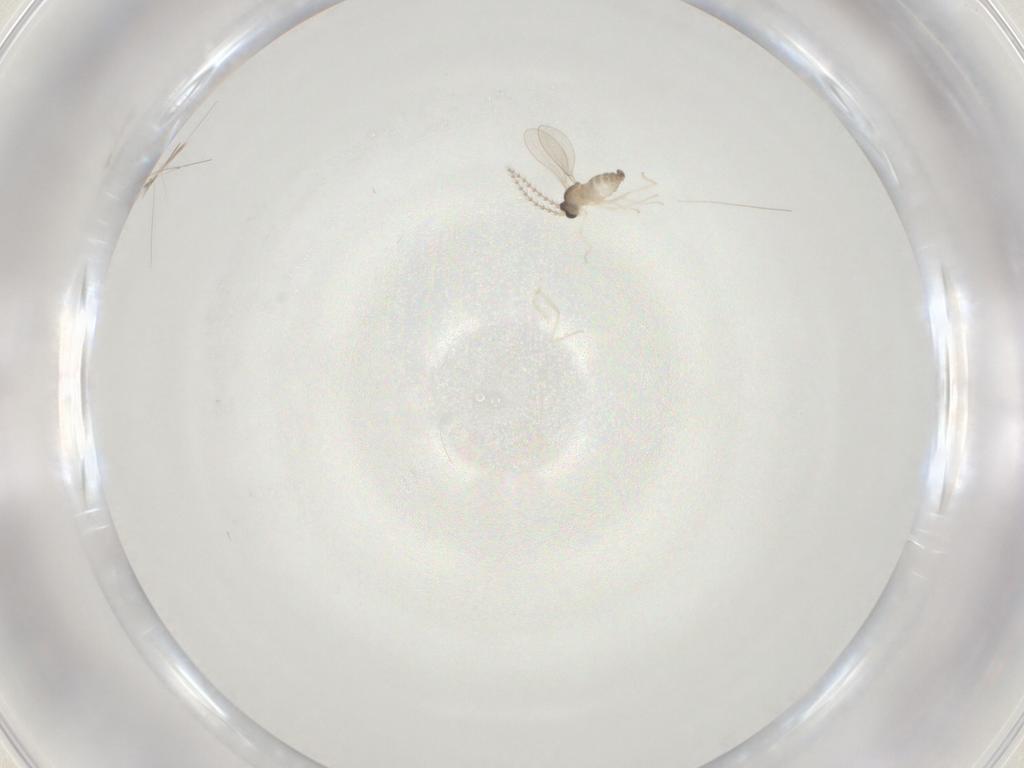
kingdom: Animalia
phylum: Arthropoda
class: Insecta
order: Diptera
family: Cecidomyiidae
